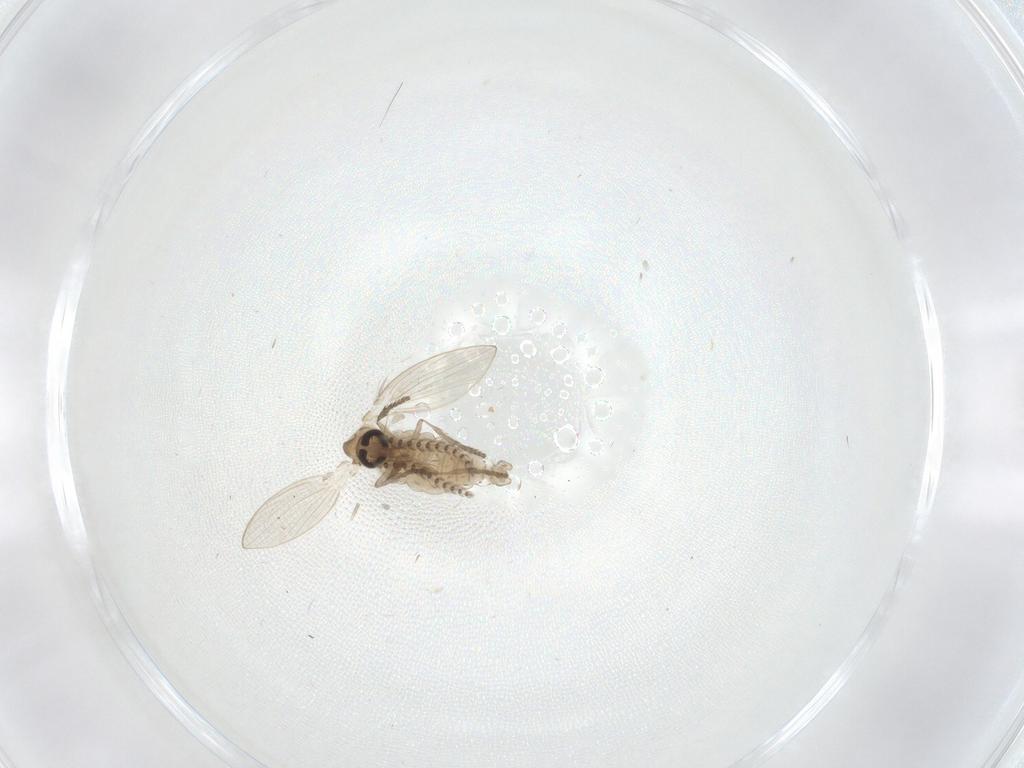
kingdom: Animalia
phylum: Arthropoda
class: Insecta
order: Diptera
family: Psychodidae
